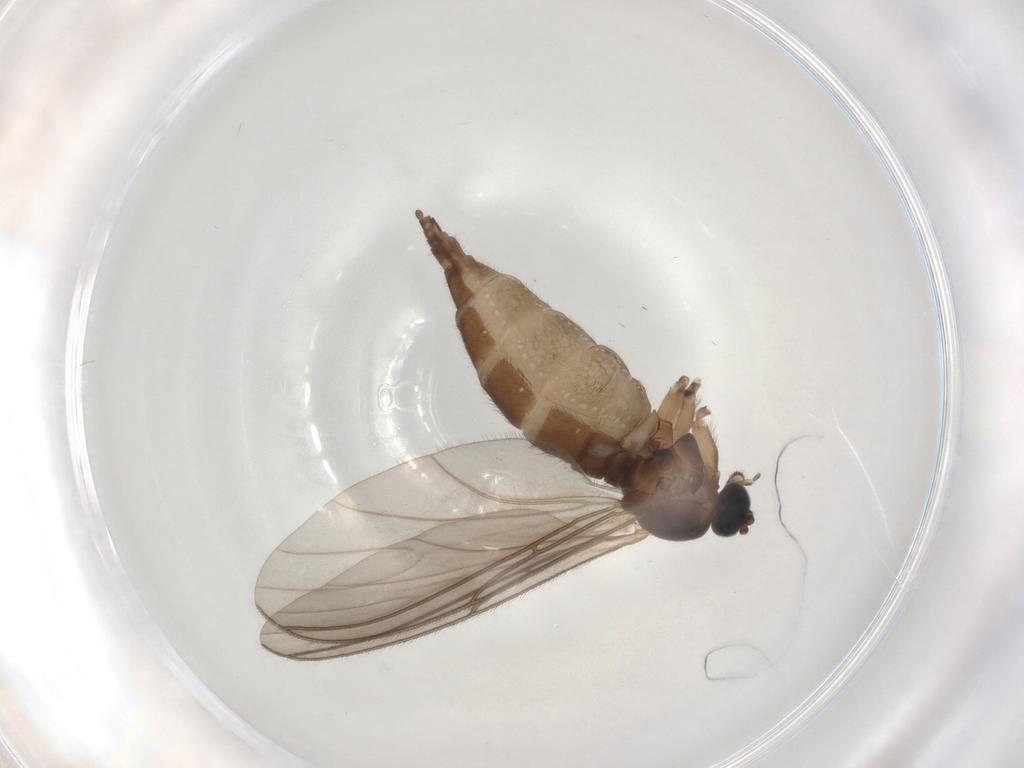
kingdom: Animalia
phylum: Arthropoda
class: Insecta
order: Diptera
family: Sciaridae
